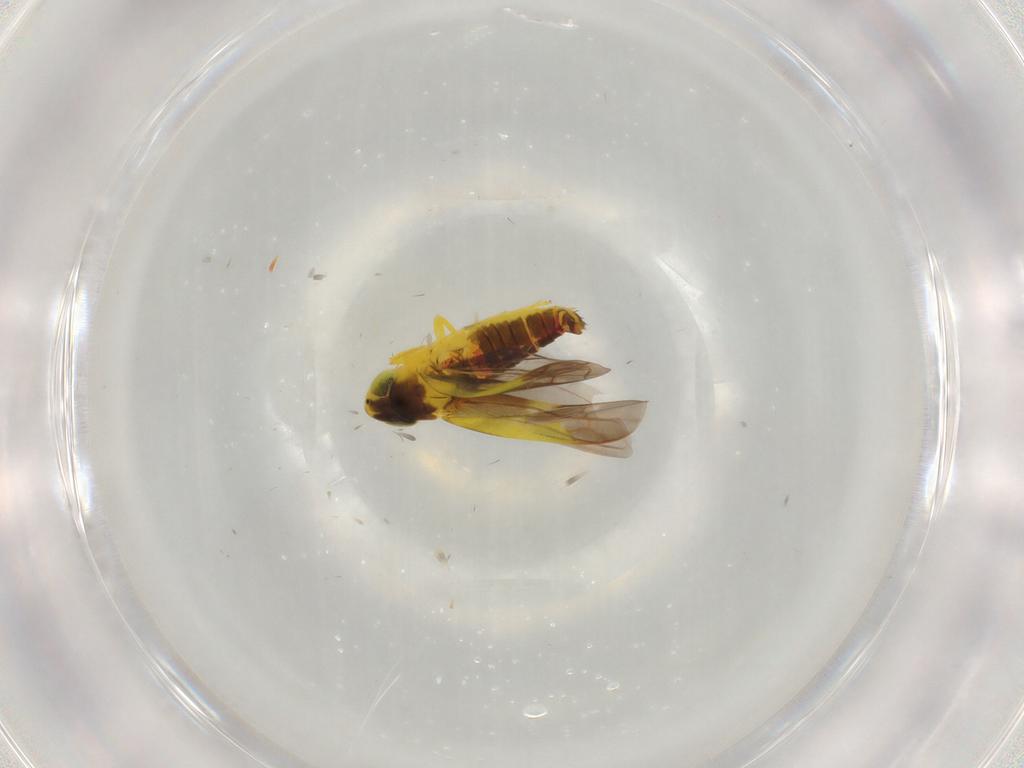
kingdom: Animalia
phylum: Arthropoda
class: Insecta
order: Hemiptera
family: Cicadellidae
